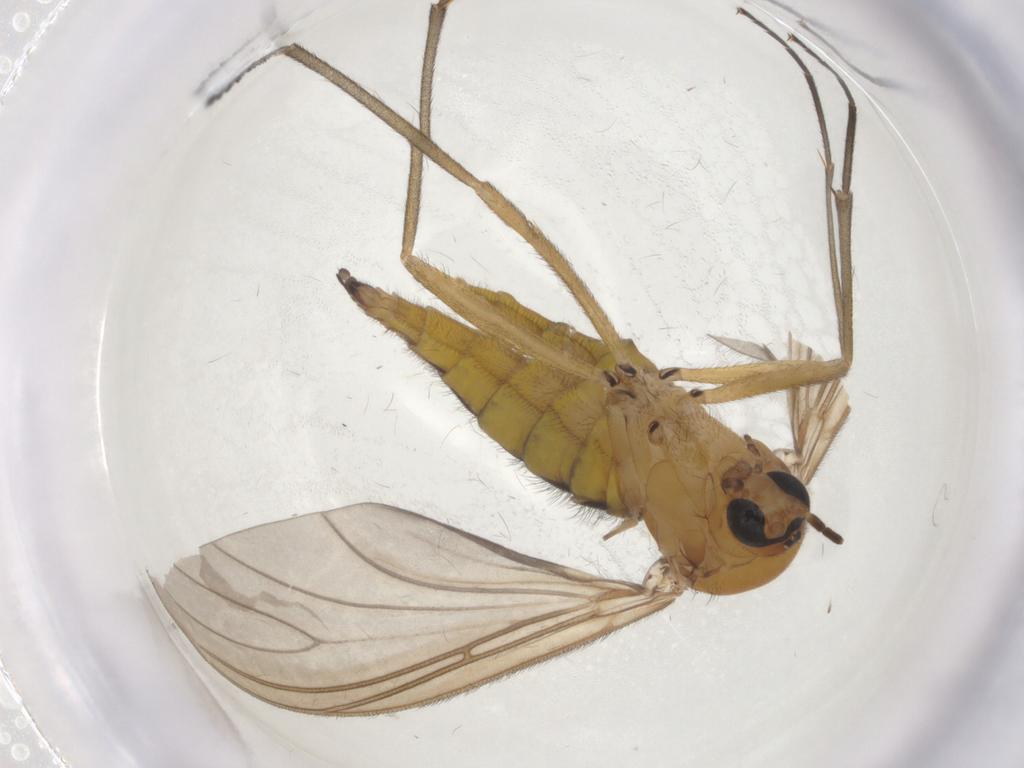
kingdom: Animalia
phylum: Arthropoda
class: Insecta
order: Diptera
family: Sciaridae
